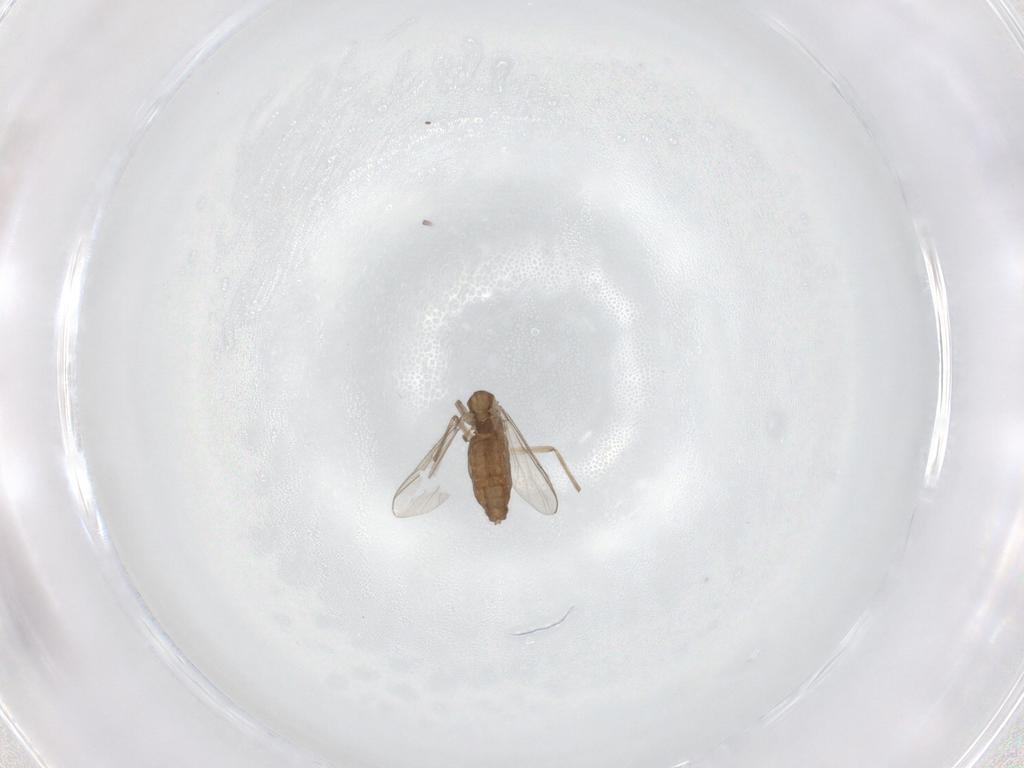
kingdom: Animalia
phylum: Arthropoda
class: Insecta
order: Diptera
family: Chironomidae
